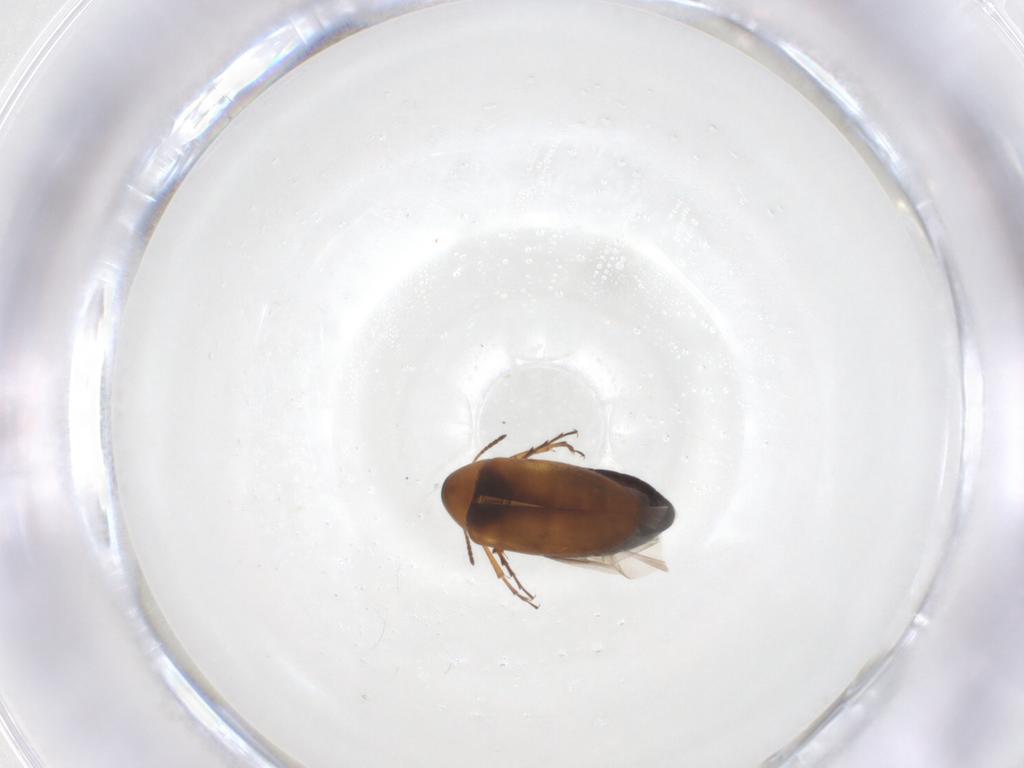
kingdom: Animalia
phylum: Arthropoda
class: Insecta
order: Coleoptera
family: Scraptiidae
